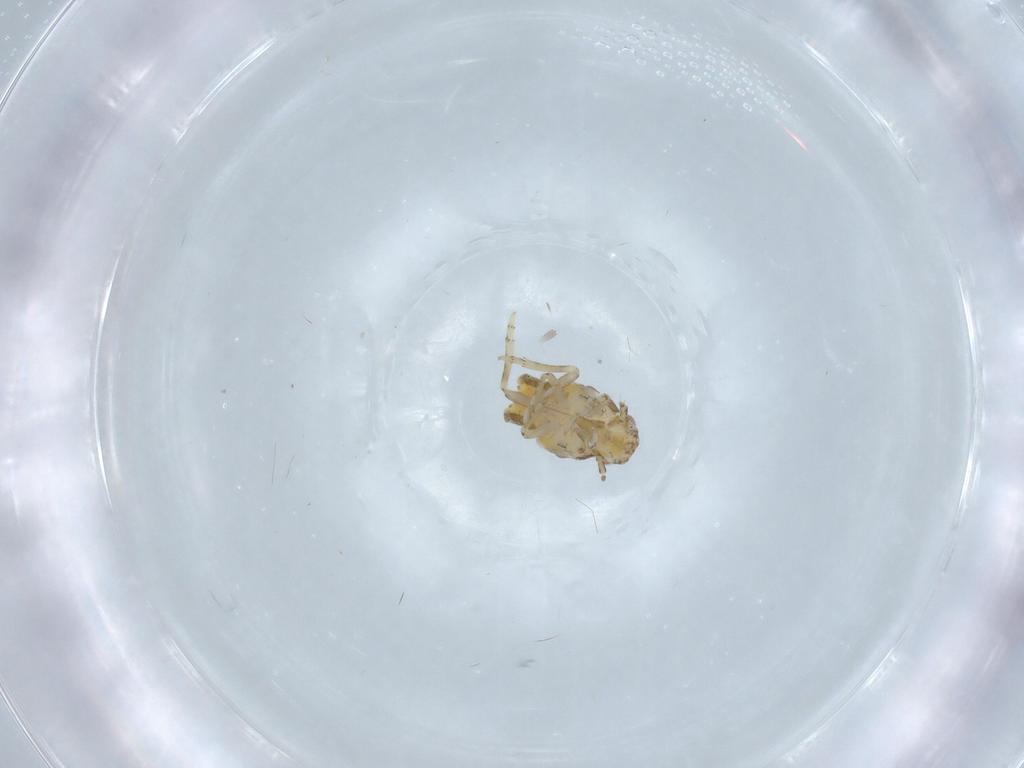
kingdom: Animalia
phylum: Arthropoda
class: Insecta
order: Hemiptera
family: Flatidae
